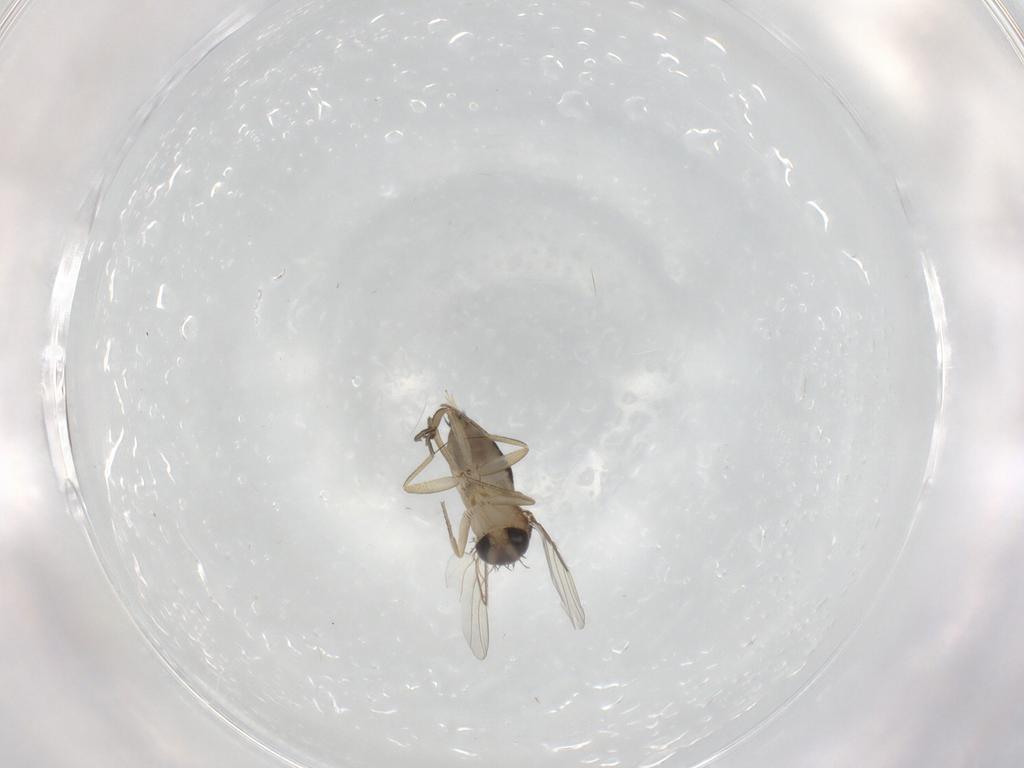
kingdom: Animalia
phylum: Arthropoda
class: Insecta
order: Diptera
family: Phoridae
